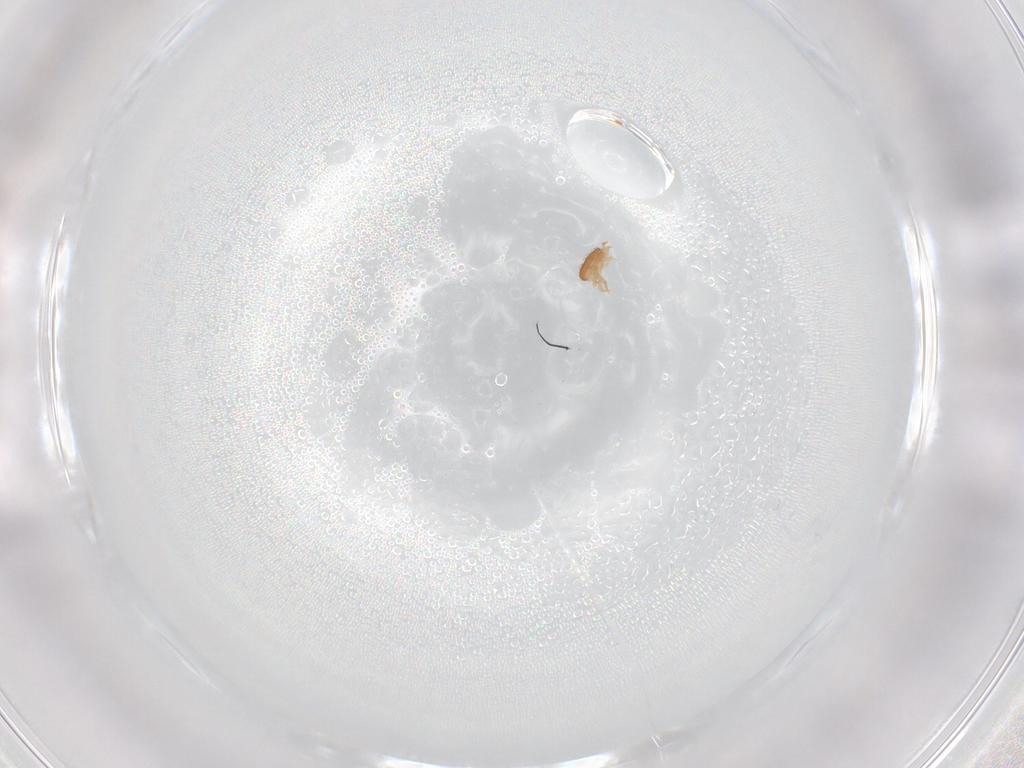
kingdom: Animalia
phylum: Arthropoda
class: Arachnida
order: Mesostigmata
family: Eviphididae
